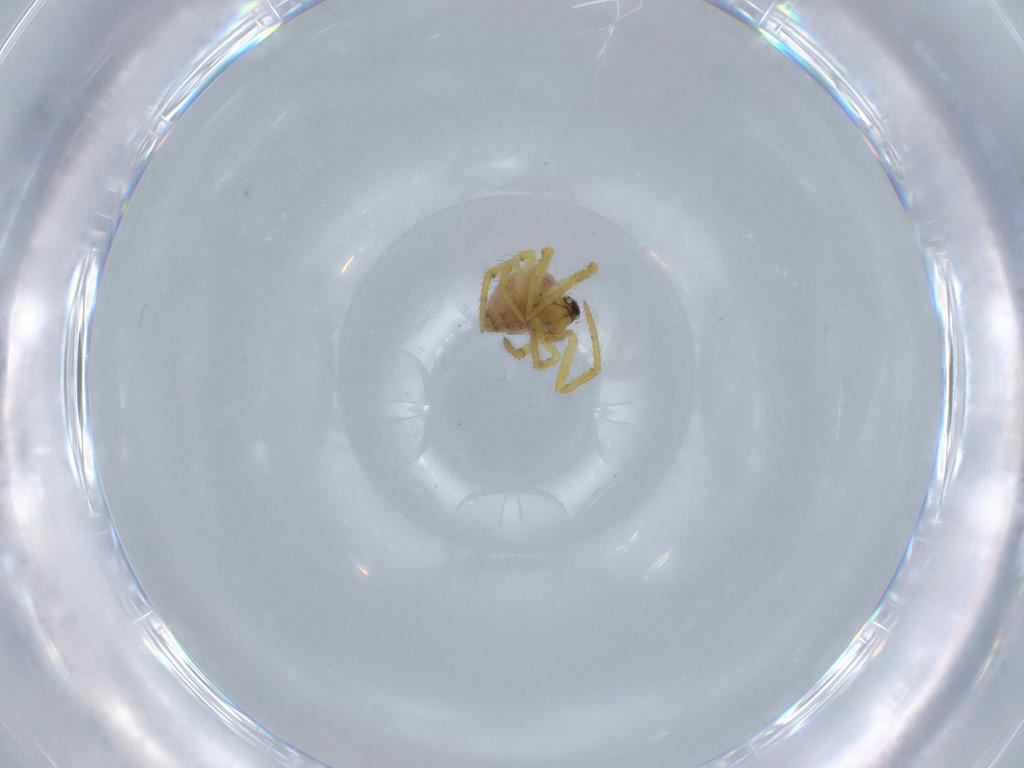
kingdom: Animalia
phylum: Arthropoda
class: Arachnida
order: Araneae
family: Theridiidae
